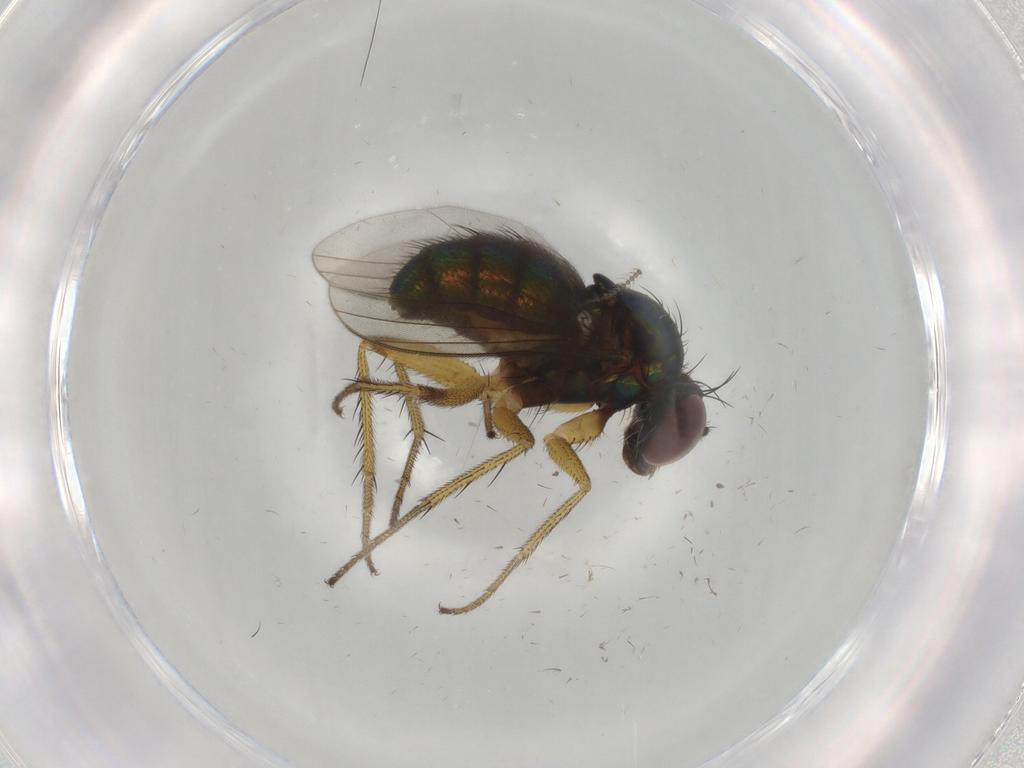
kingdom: Animalia
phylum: Arthropoda
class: Insecta
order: Diptera
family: Dolichopodidae
